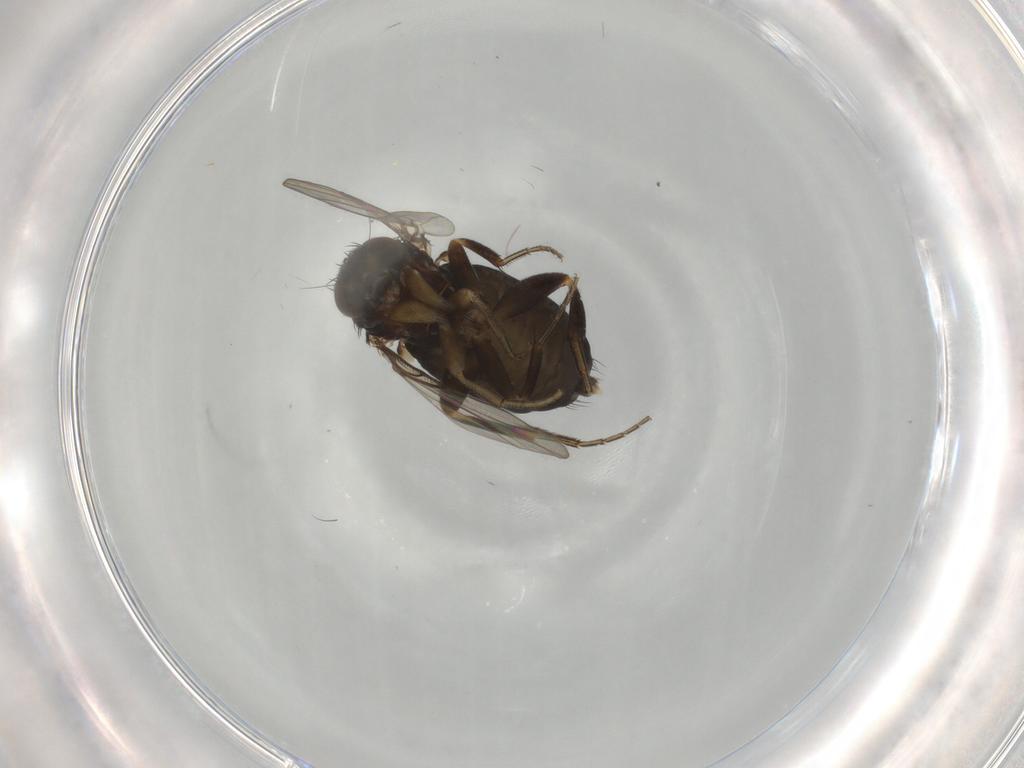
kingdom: Animalia
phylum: Arthropoda
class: Insecta
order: Diptera
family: Phoridae
